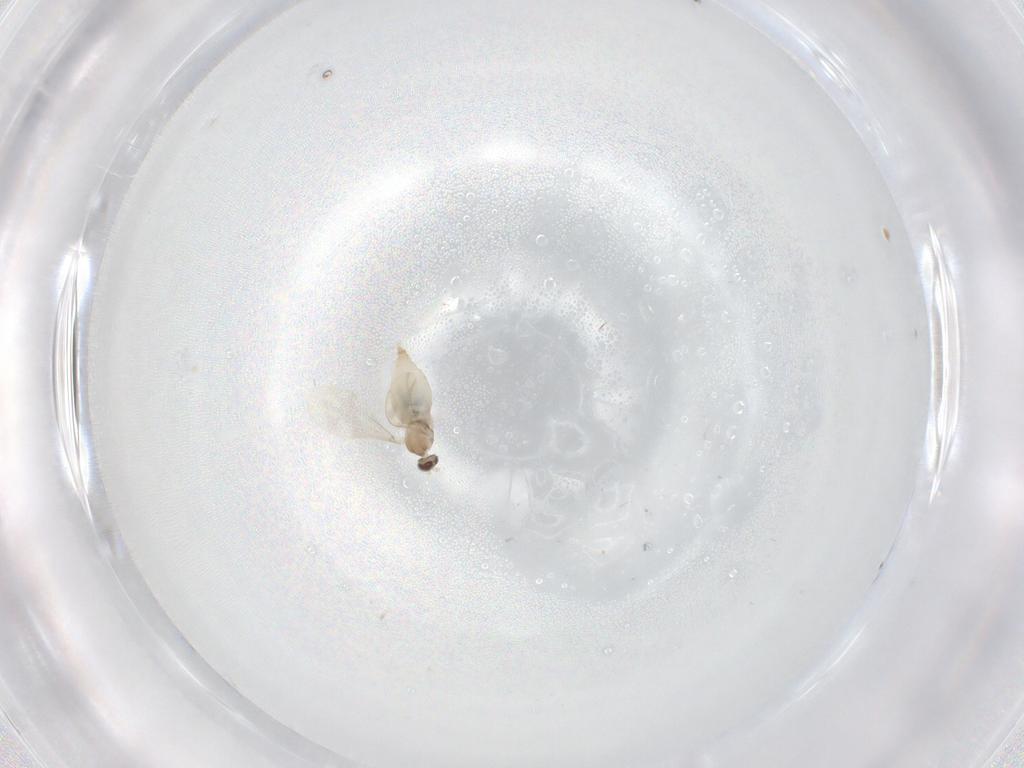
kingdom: Animalia
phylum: Arthropoda
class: Insecta
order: Diptera
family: Cecidomyiidae
